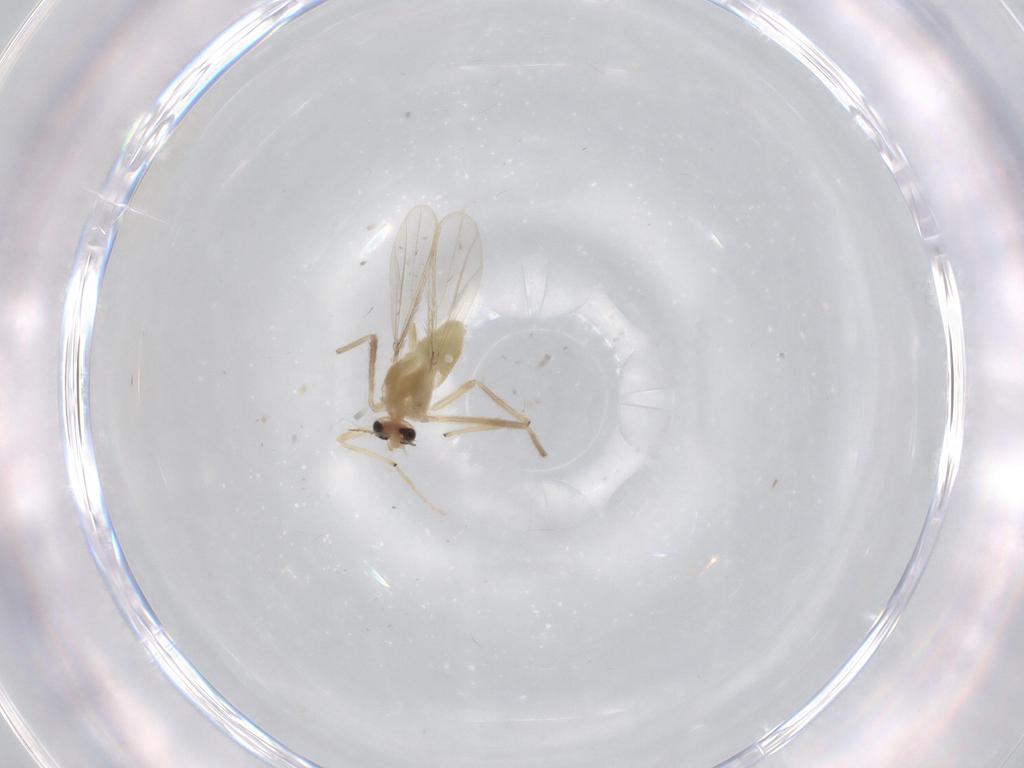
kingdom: Animalia
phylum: Arthropoda
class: Insecta
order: Diptera
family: Chironomidae
